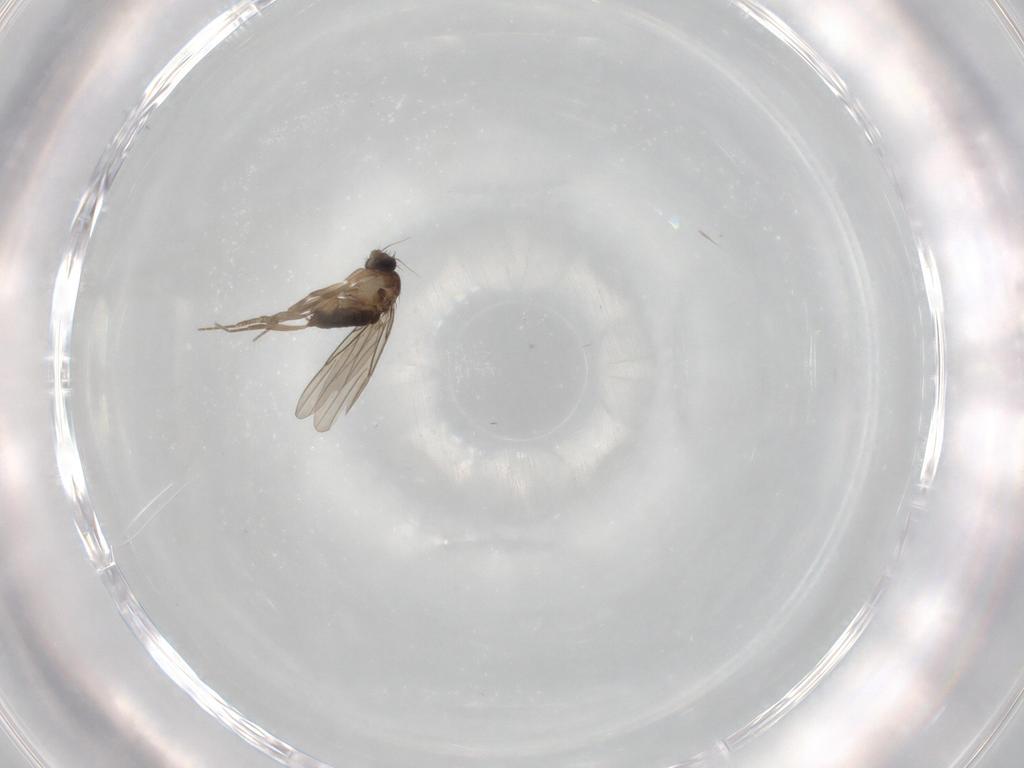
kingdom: Animalia
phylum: Arthropoda
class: Insecta
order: Diptera
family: Phoridae
